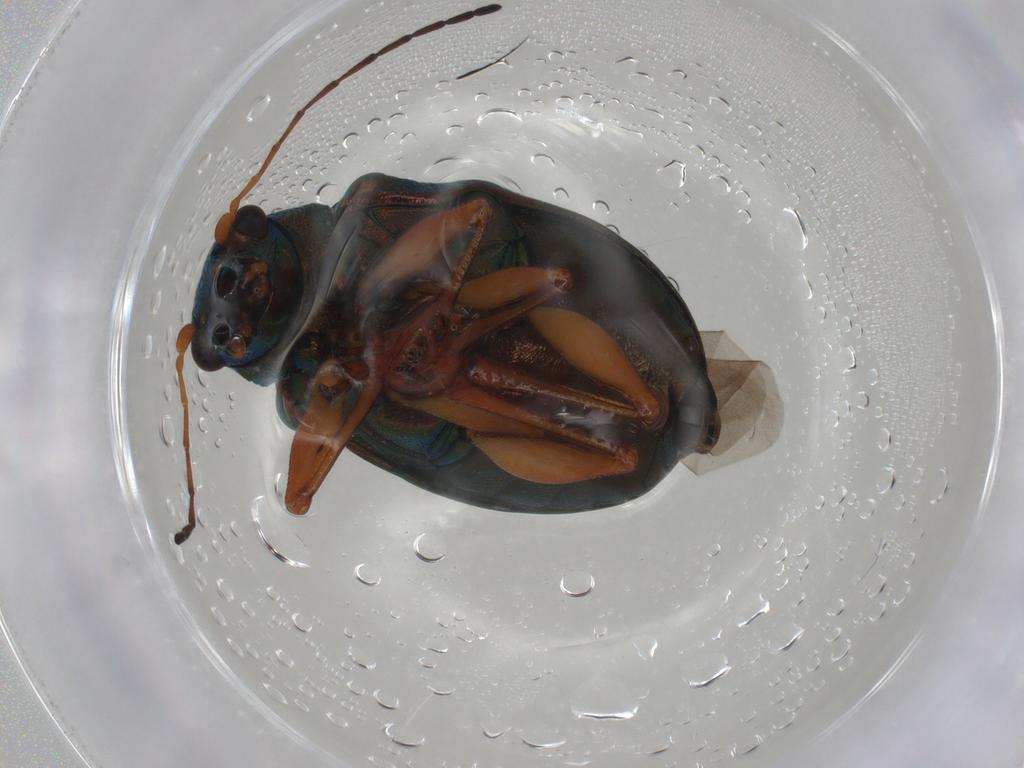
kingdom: Animalia
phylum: Arthropoda
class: Insecta
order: Coleoptera
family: Chrysomelidae
